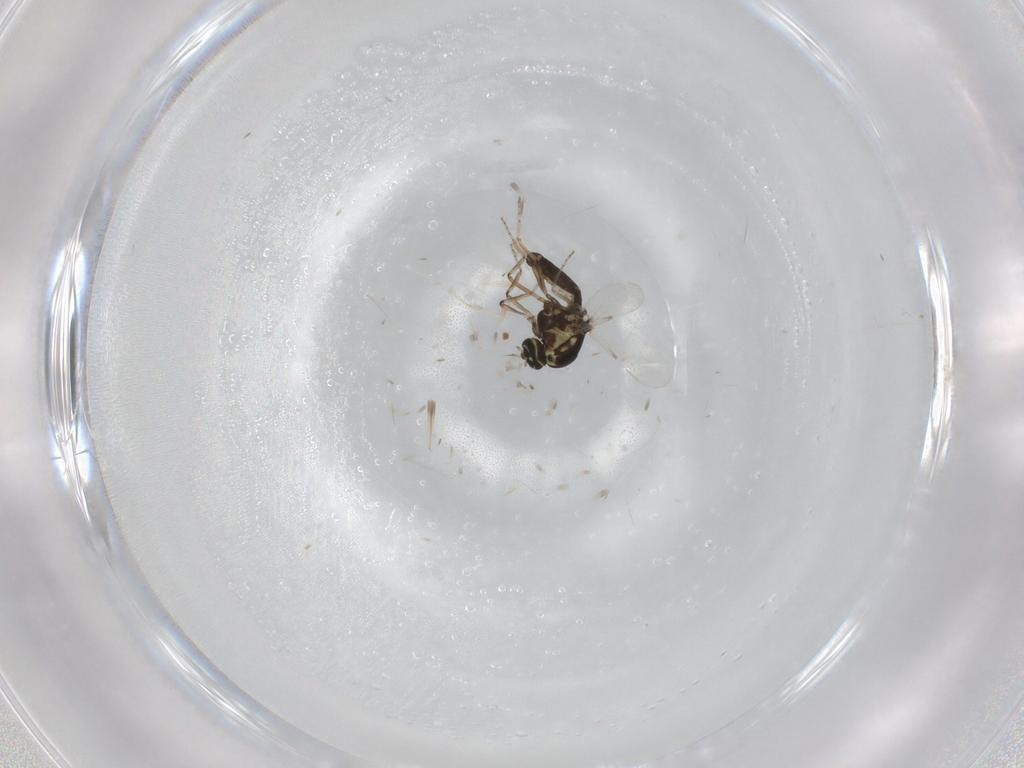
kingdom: Animalia
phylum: Arthropoda
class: Insecta
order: Diptera
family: Ceratopogonidae
